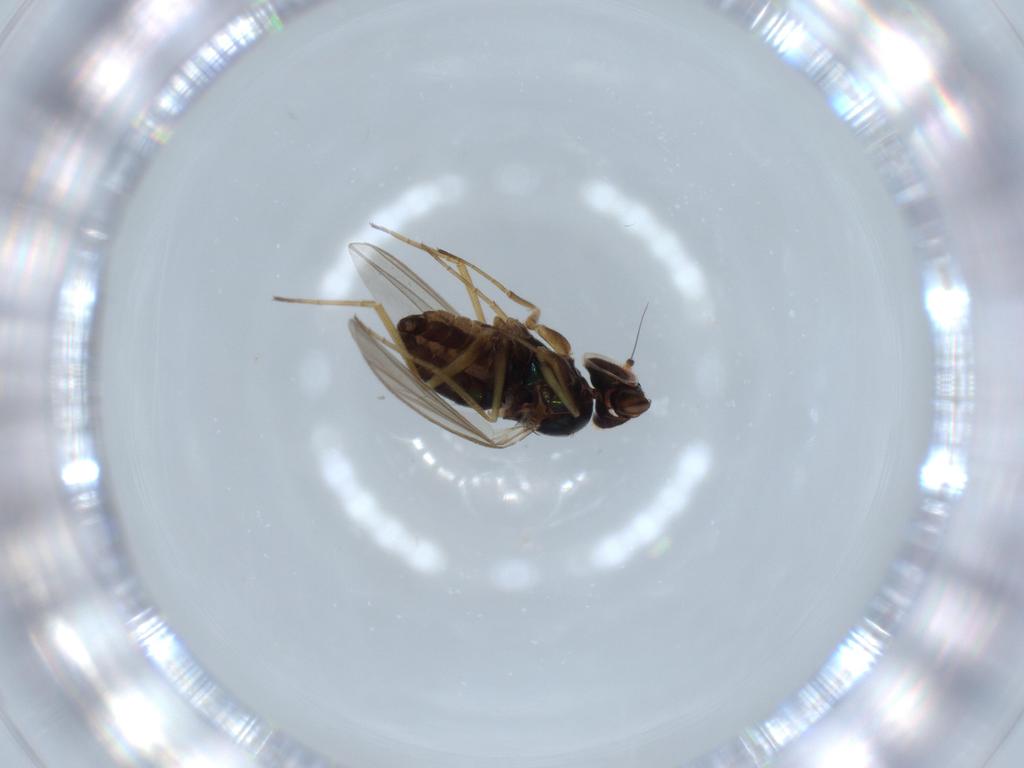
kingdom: Animalia
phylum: Arthropoda
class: Insecta
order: Diptera
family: Dolichopodidae
